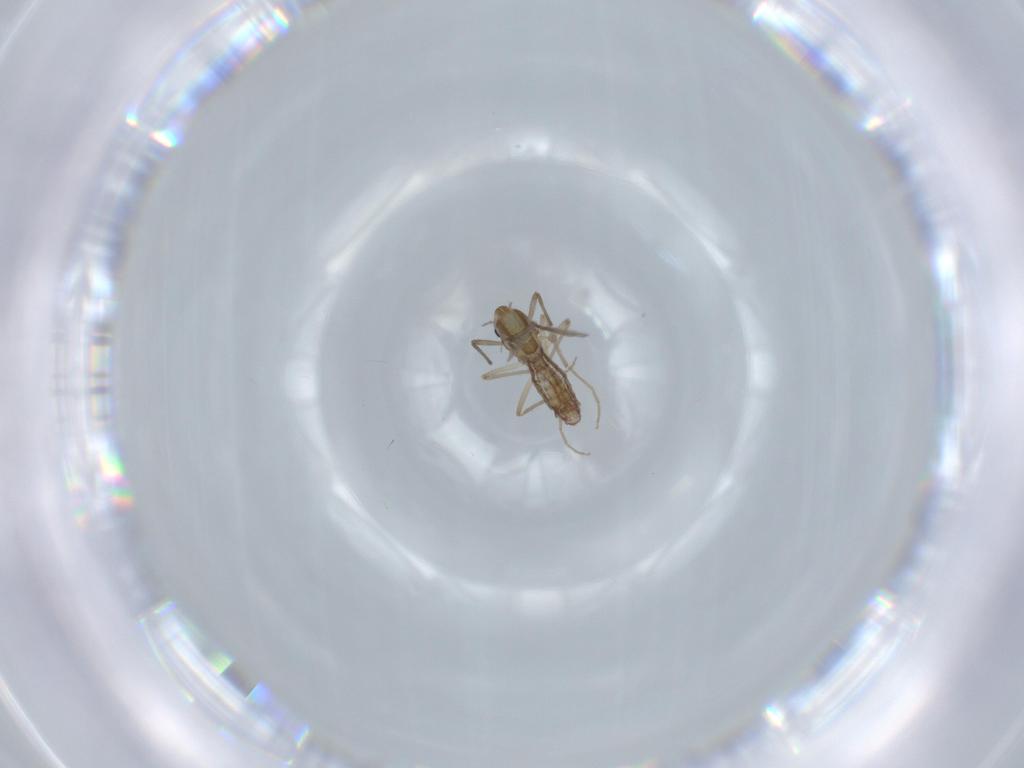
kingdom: Animalia
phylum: Arthropoda
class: Insecta
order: Diptera
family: Chironomidae
